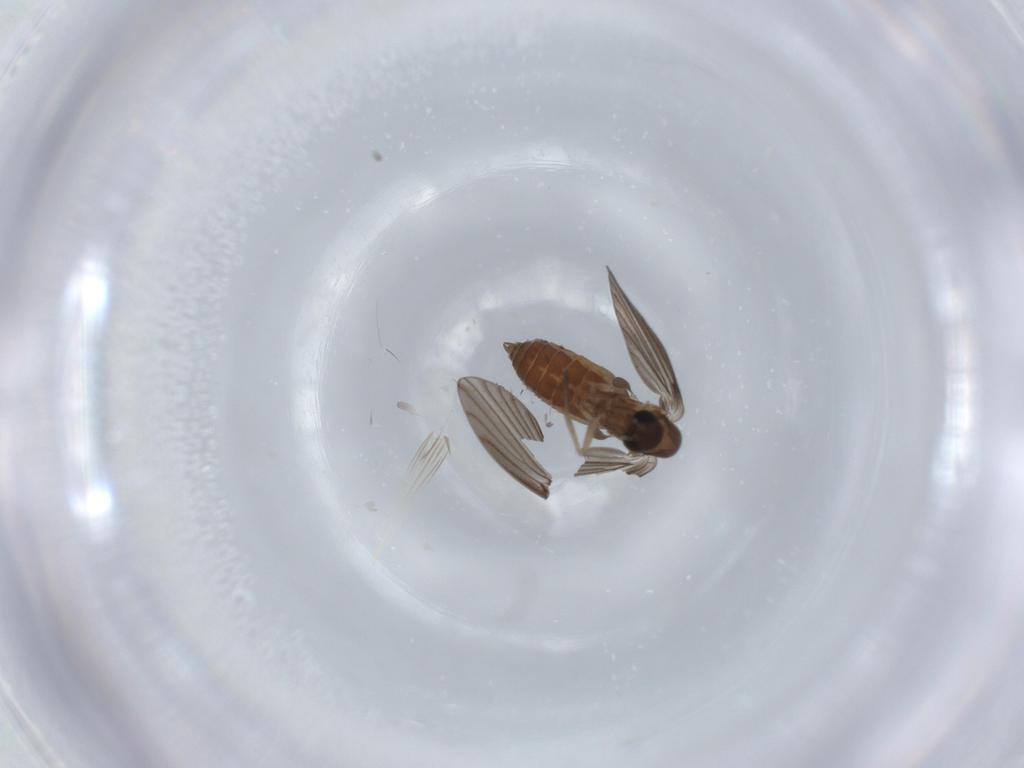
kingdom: Animalia
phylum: Arthropoda
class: Insecta
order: Diptera
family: Psychodidae
